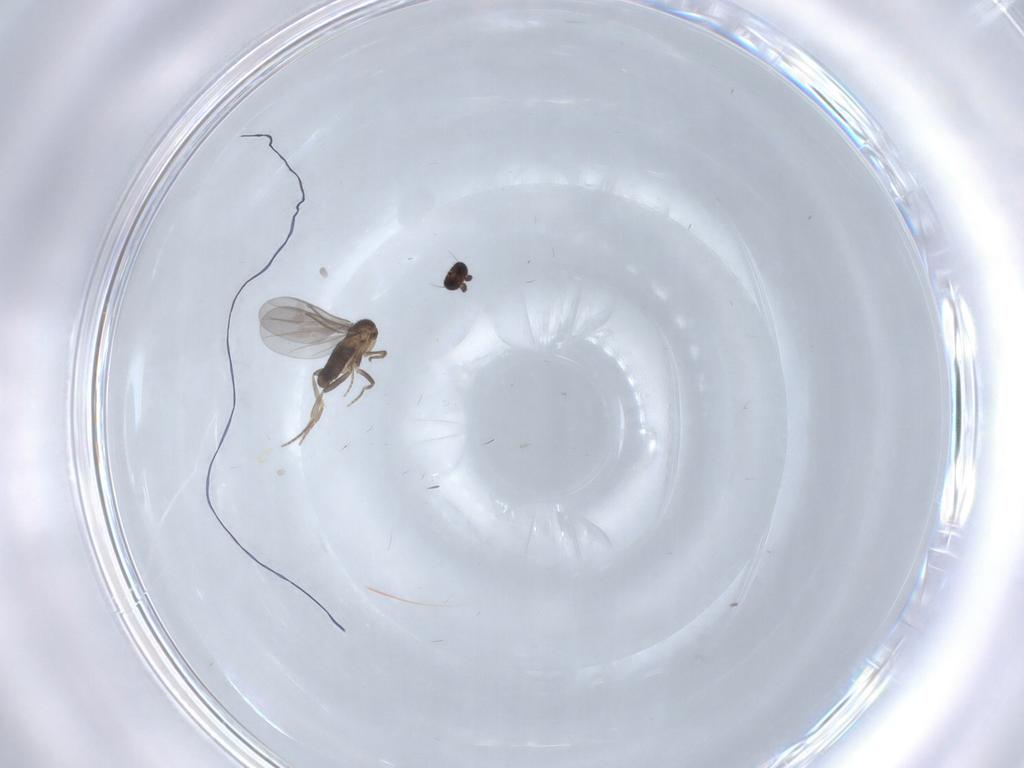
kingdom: Animalia
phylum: Arthropoda
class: Insecta
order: Diptera
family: Phoridae
